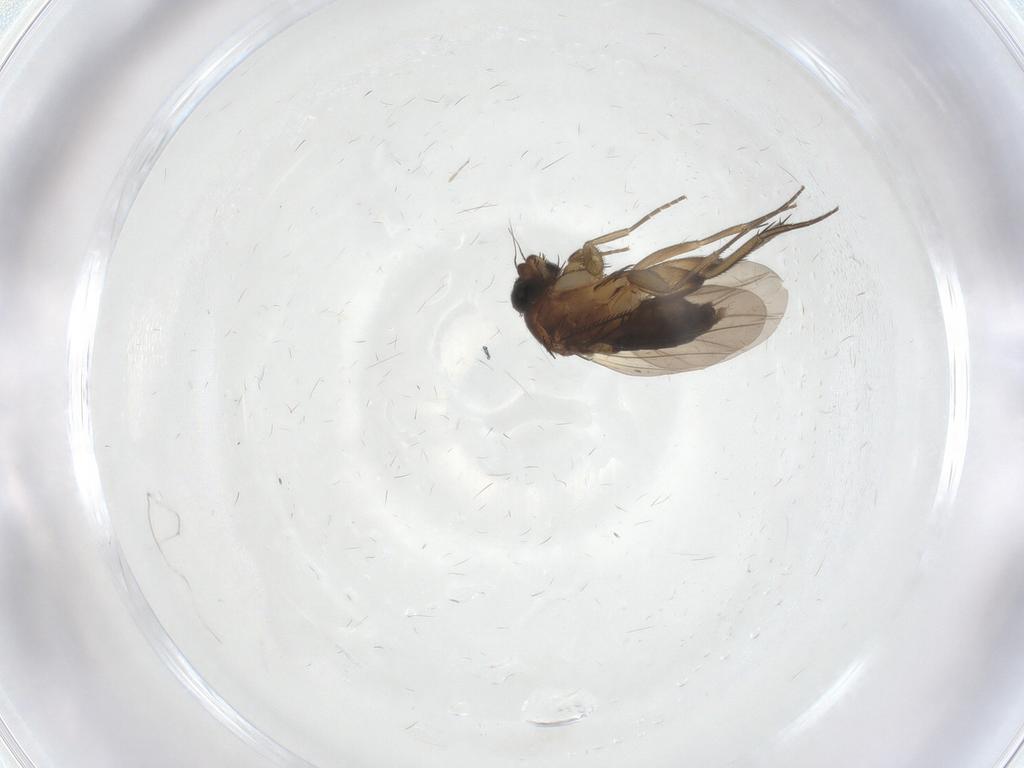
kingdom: Animalia
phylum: Arthropoda
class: Insecta
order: Diptera
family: Phoridae
